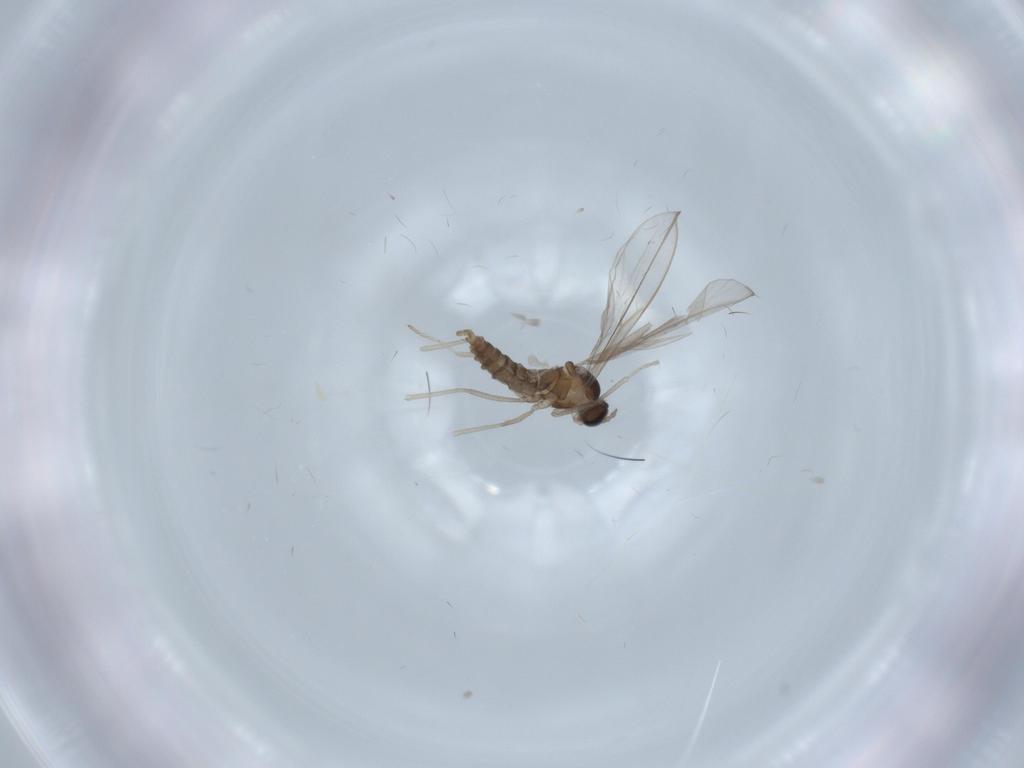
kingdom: Animalia
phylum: Arthropoda
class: Insecta
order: Diptera
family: Cecidomyiidae
